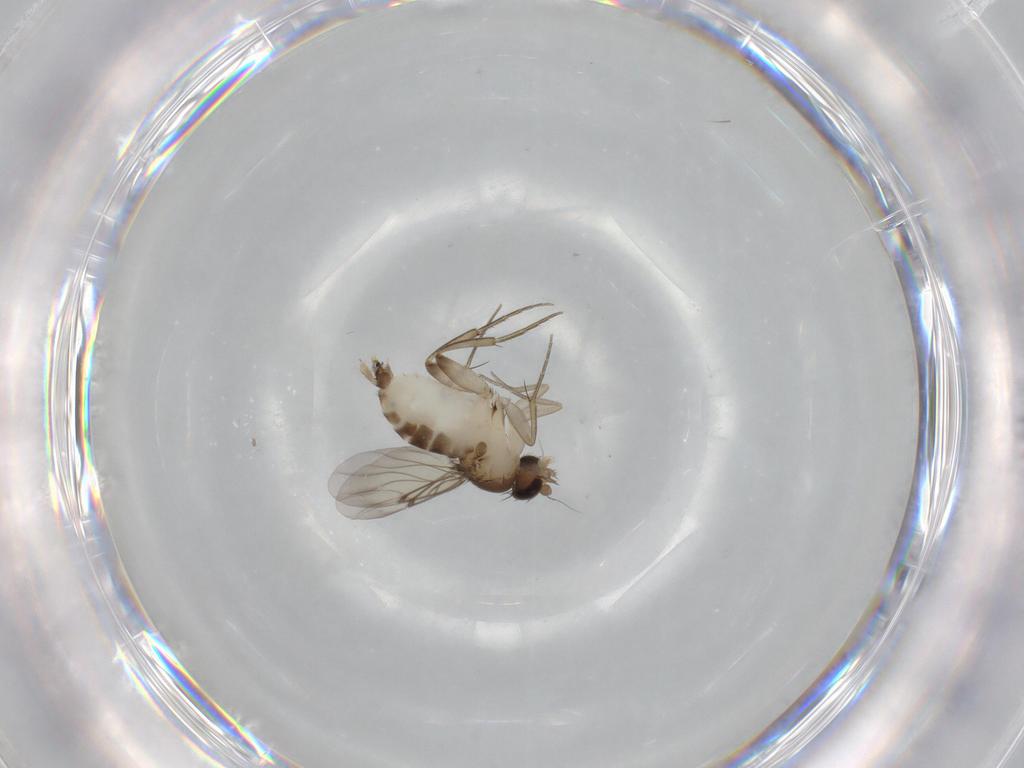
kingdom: Animalia
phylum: Arthropoda
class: Insecta
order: Diptera
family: Phoridae
